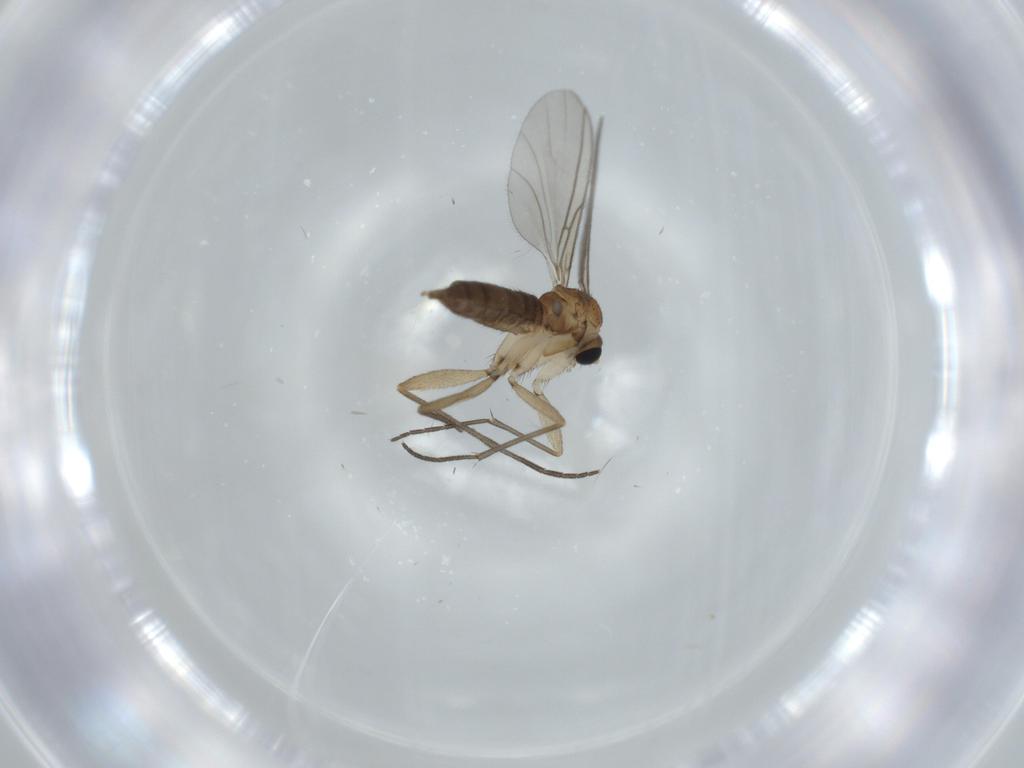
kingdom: Animalia
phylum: Arthropoda
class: Insecta
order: Diptera
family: Sciaridae
